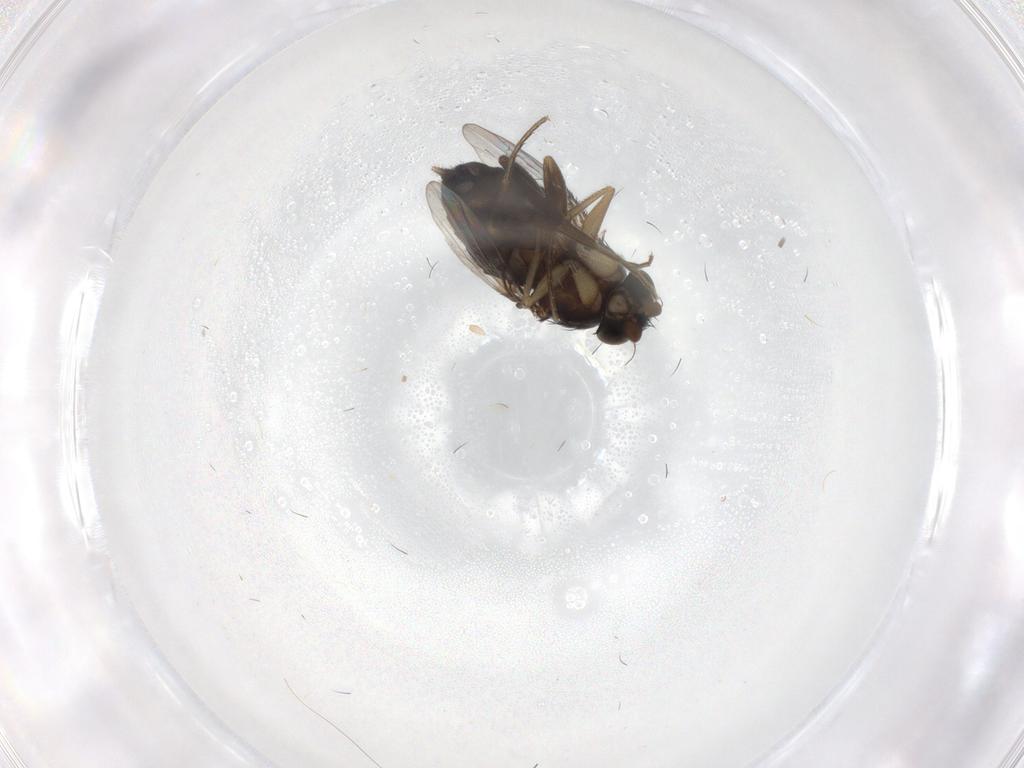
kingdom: Animalia
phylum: Arthropoda
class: Insecta
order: Diptera
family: Phoridae
